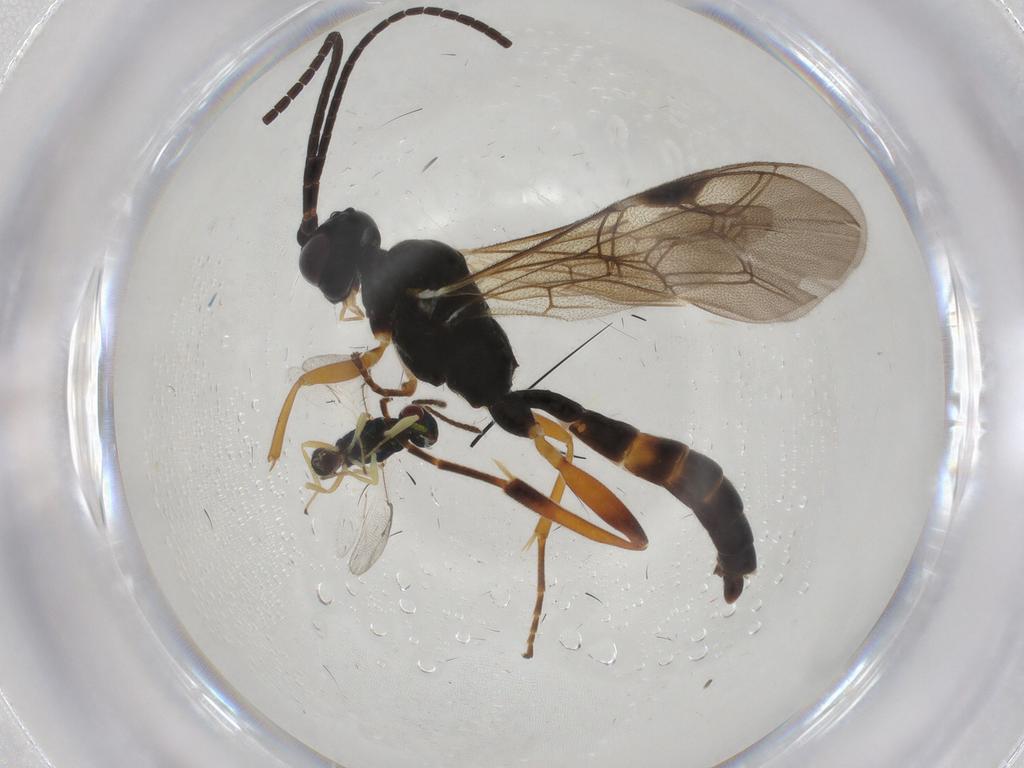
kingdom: Animalia
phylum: Arthropoda
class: Insecta
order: Hymenoptera
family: Ichneumonidae
